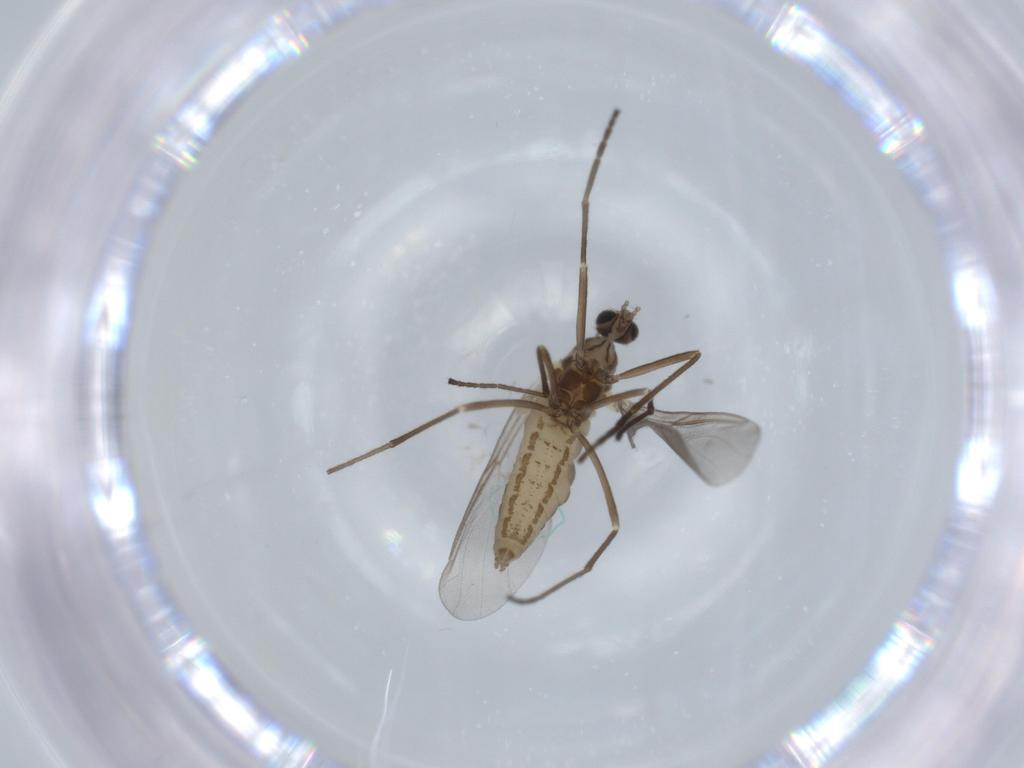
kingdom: Animalia
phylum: Arthropoda
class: Insecta
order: Diptera
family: Cecidomyiidae
